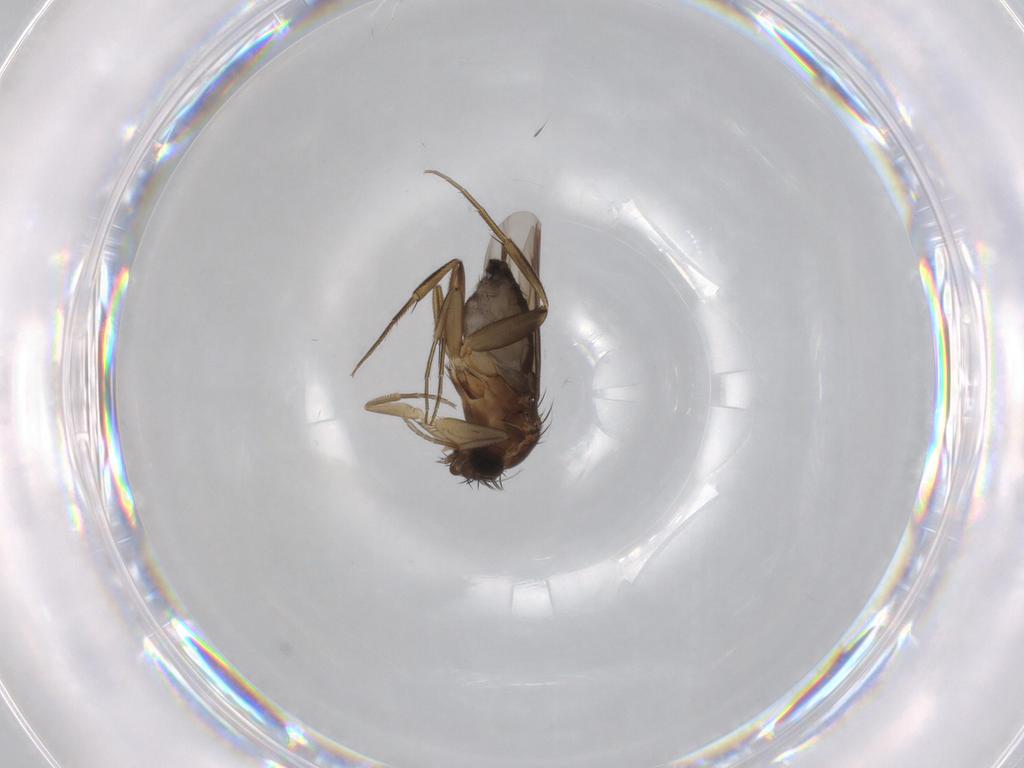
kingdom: Animalia
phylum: Arthropoda
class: Insecta
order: Diptera
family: Phoridae
